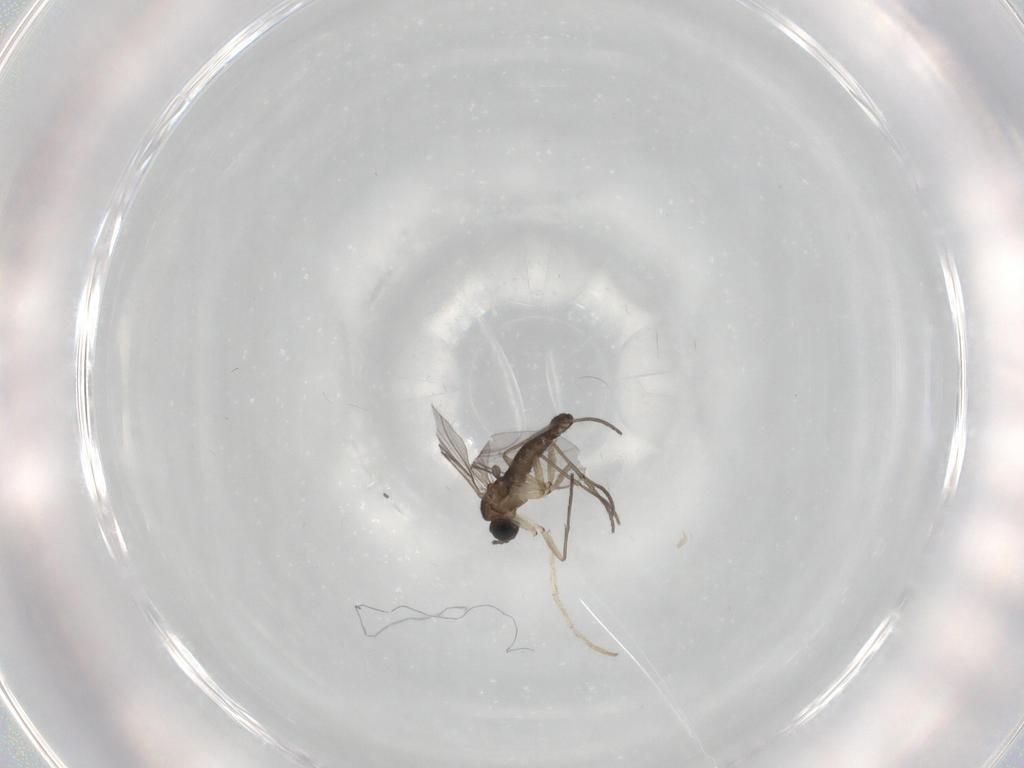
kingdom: Animalia
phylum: Arthropoda
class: Insecta
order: Diptera
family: Sciaridae
